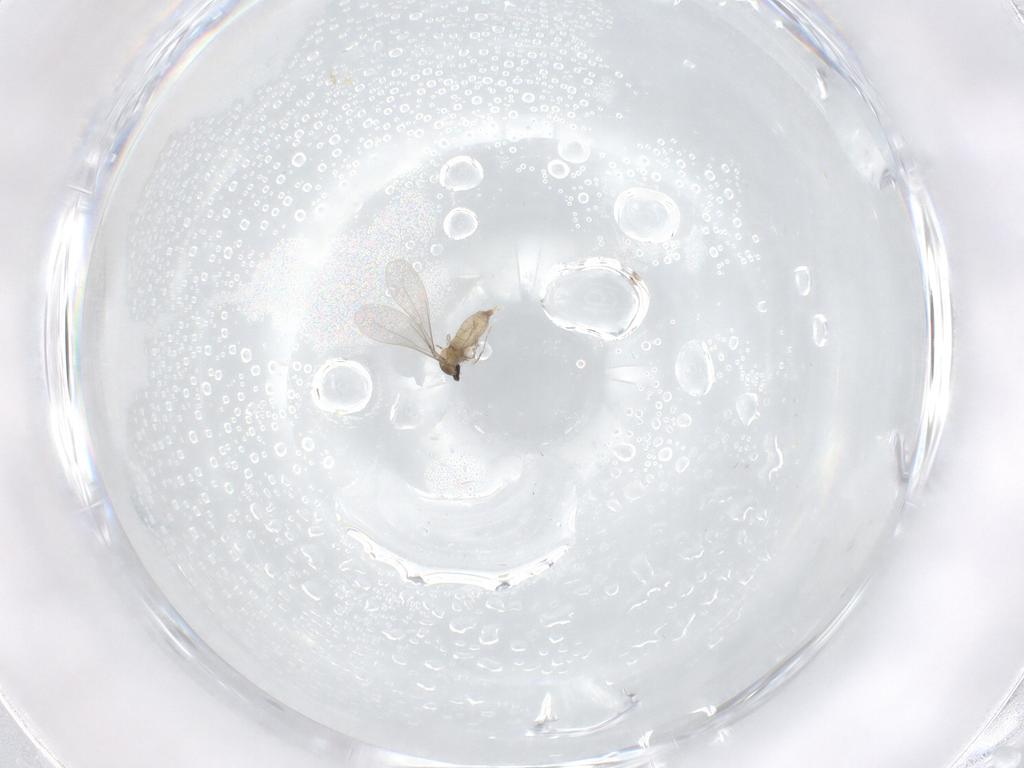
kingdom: Animalia
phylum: Arthropoda
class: Insecta
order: Diptera
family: Cecidomyiidae
